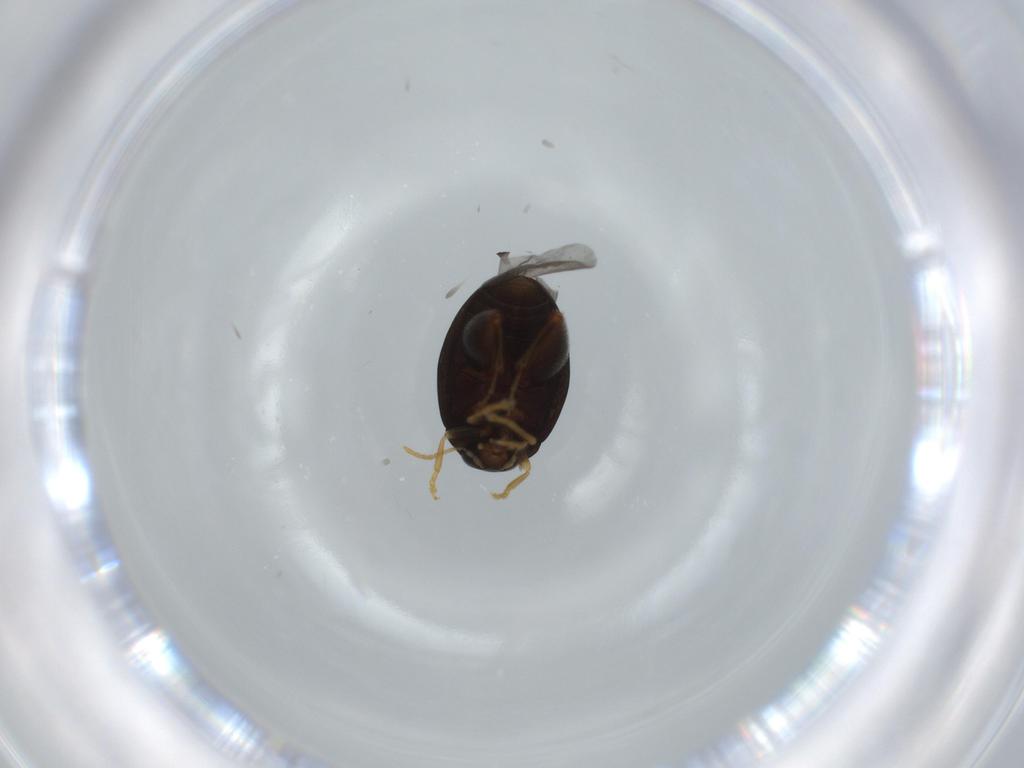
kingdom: Animalia
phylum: Arthropoda
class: Insecta
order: Coleoptera
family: Chrysomelidae
